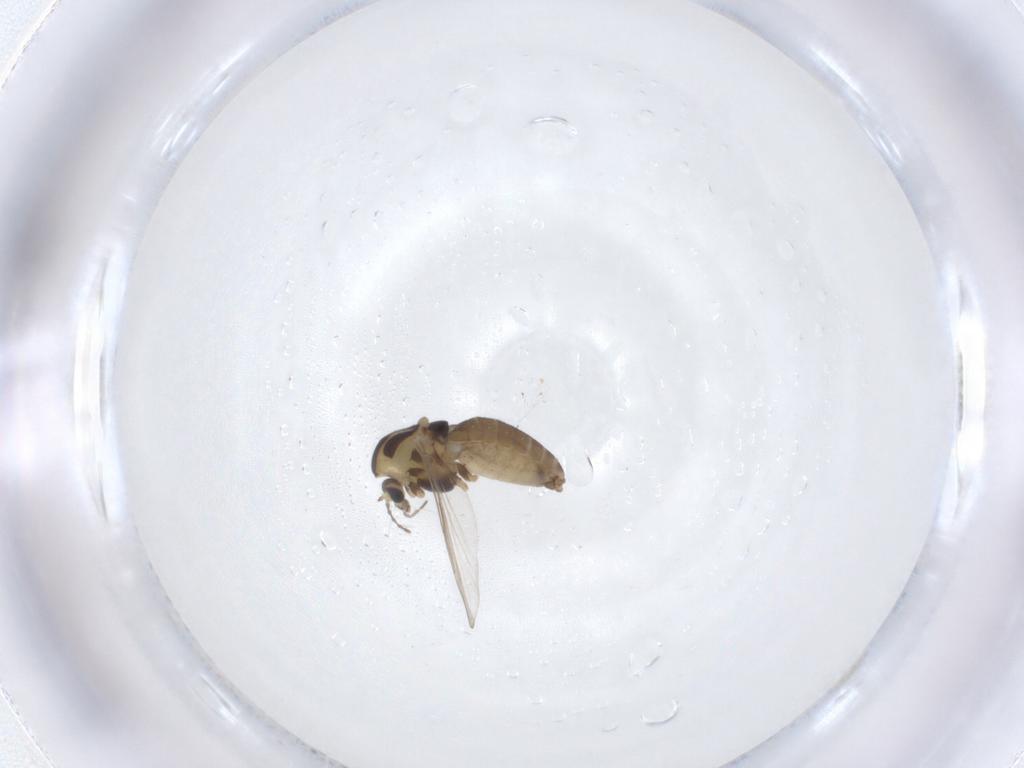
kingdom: Animalia
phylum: Arthropoda
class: Insecta
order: Diptera
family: Chironomidae
